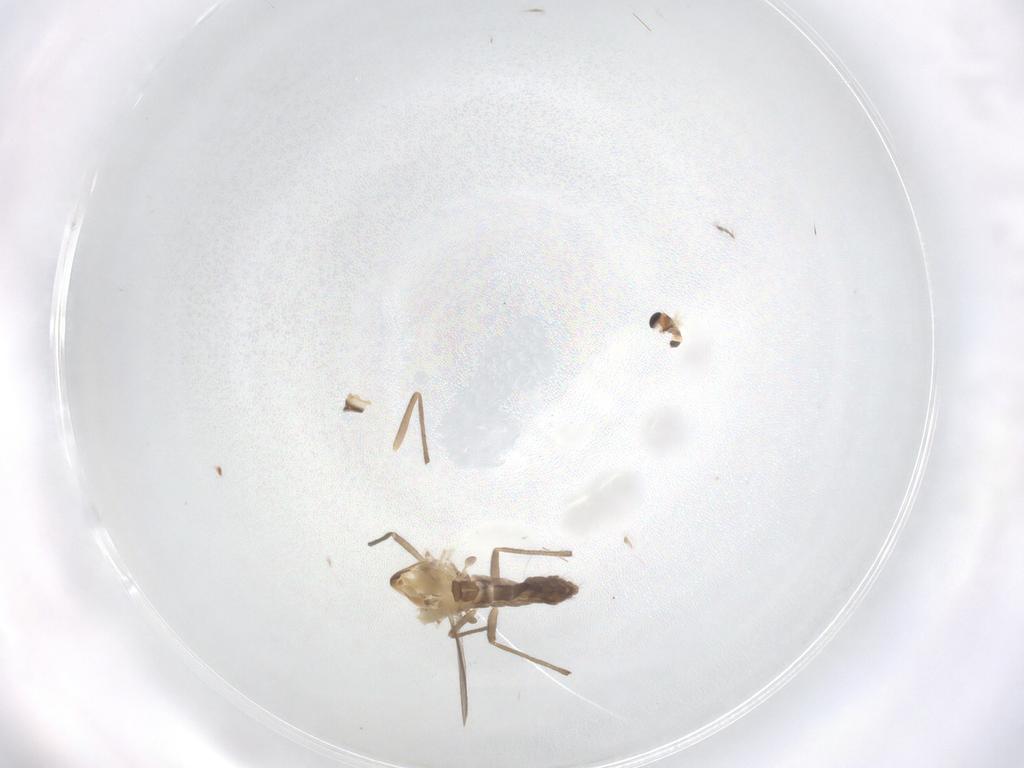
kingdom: Animalia
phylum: Arthropoda
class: Insecta
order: Diptera
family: Chironomidae
